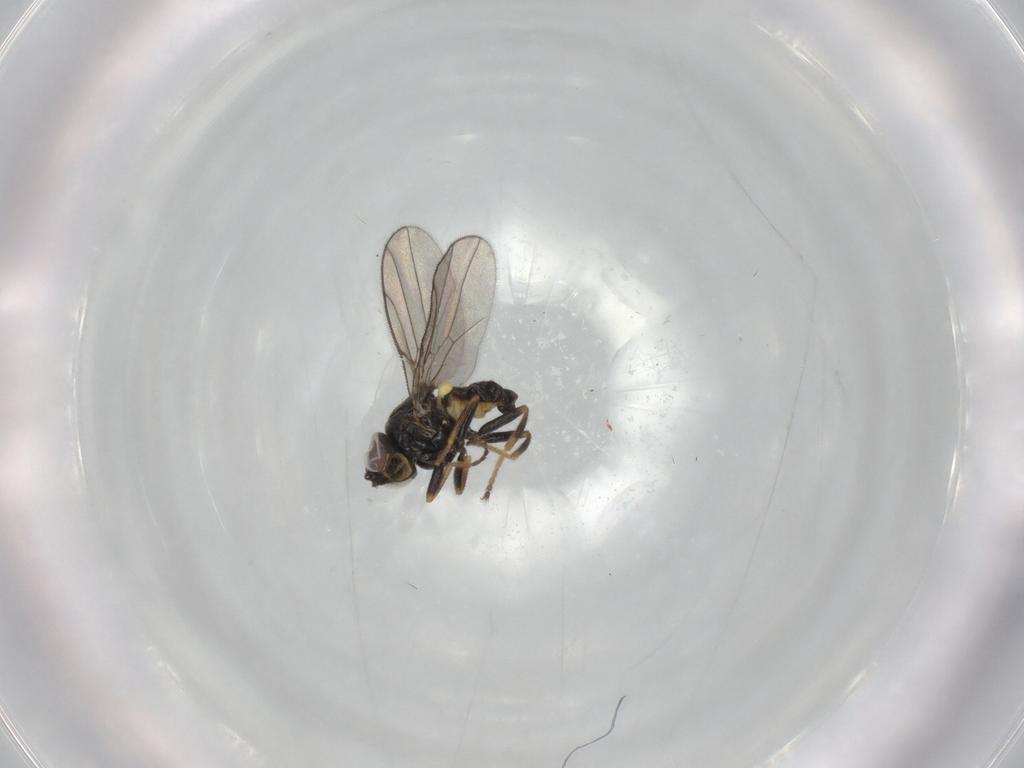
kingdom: Animalia
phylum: Arthropoda
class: Insecta
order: Diptera
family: Chloropidae
